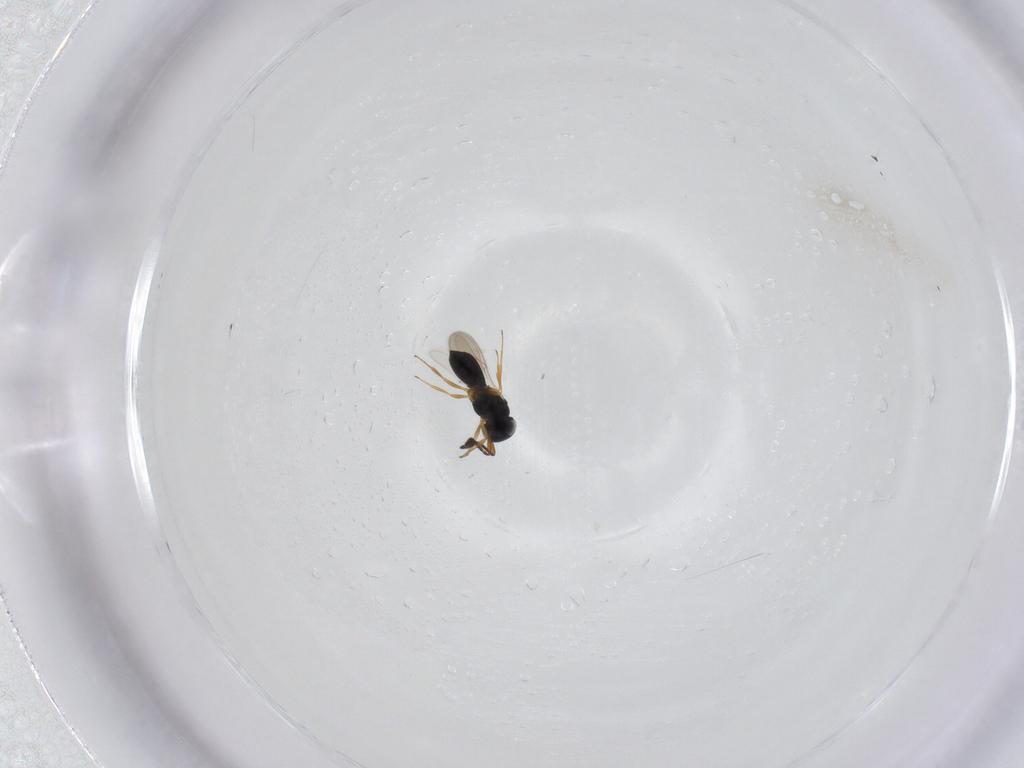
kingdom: Animalia
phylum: Arthropoda
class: Insecta
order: Hymenoptera
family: Scelionidae
